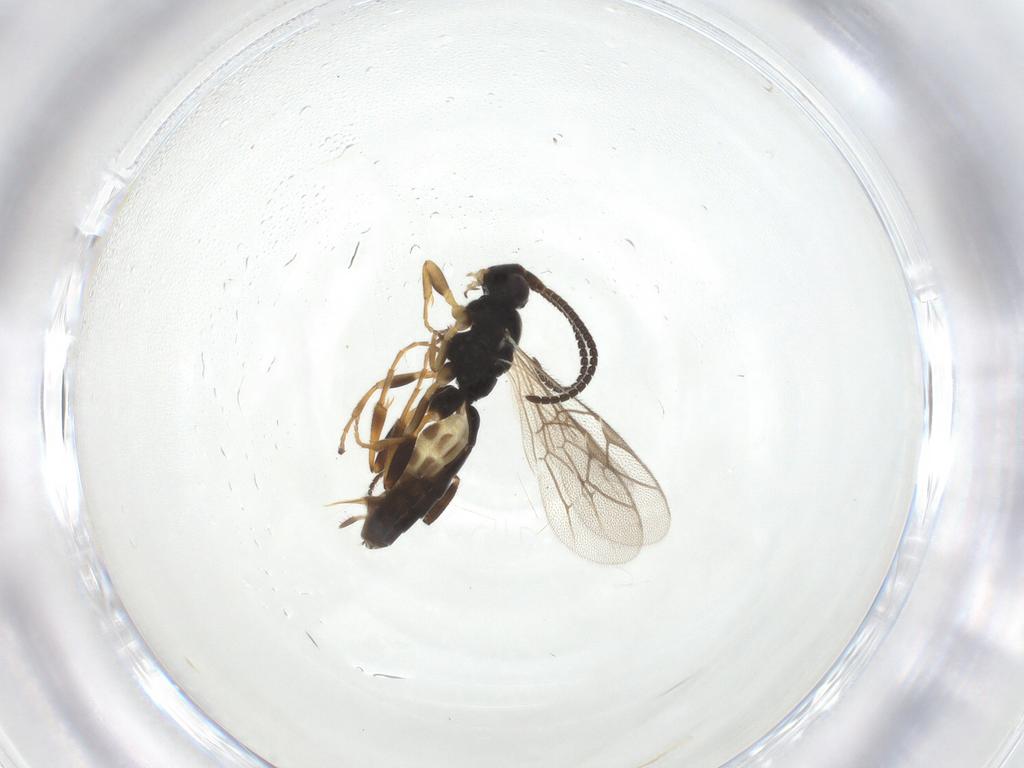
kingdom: Animalia
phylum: Arthropoda
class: Insecta
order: Hymenoptera
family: Ichneumonidae
